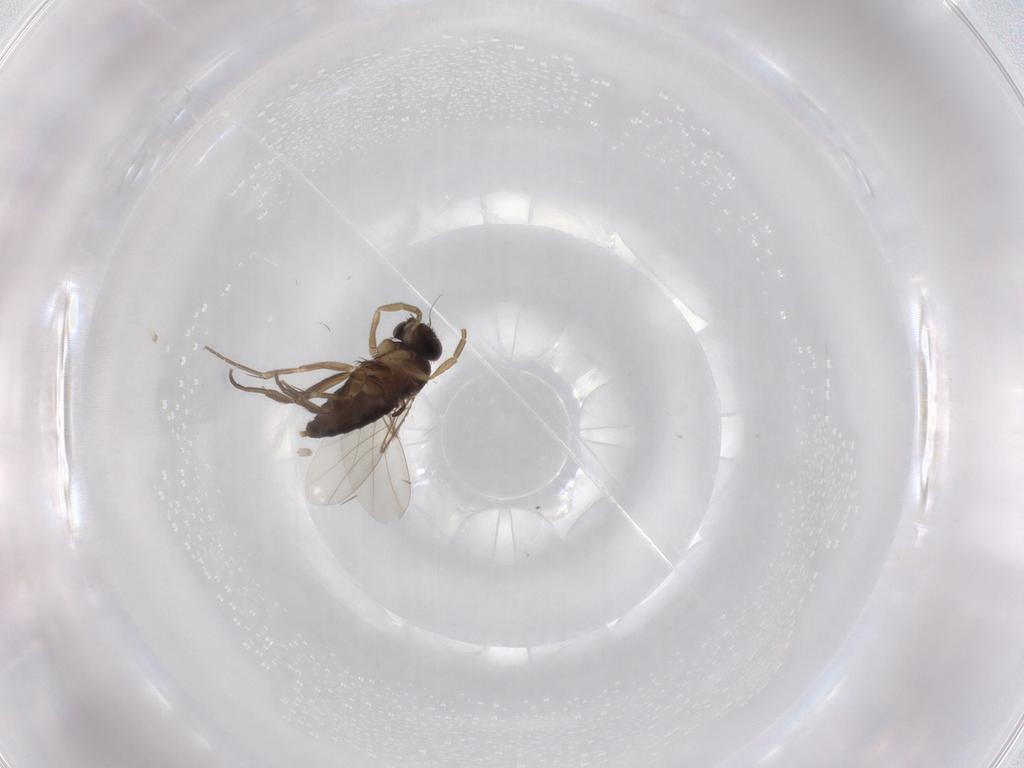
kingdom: Animalia
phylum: Arthropoda
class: Insecta
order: Diptera
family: Phoridae
